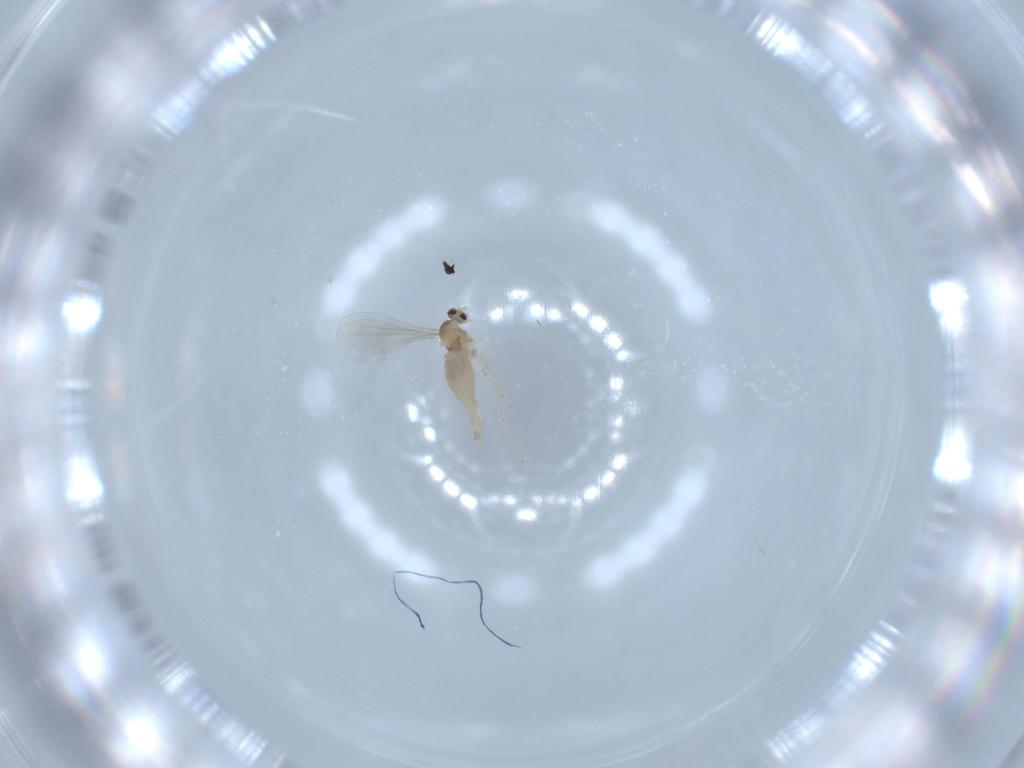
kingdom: Animalia
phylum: Arthropoda
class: Insecta
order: Diptera
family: Cecidomyiidae
